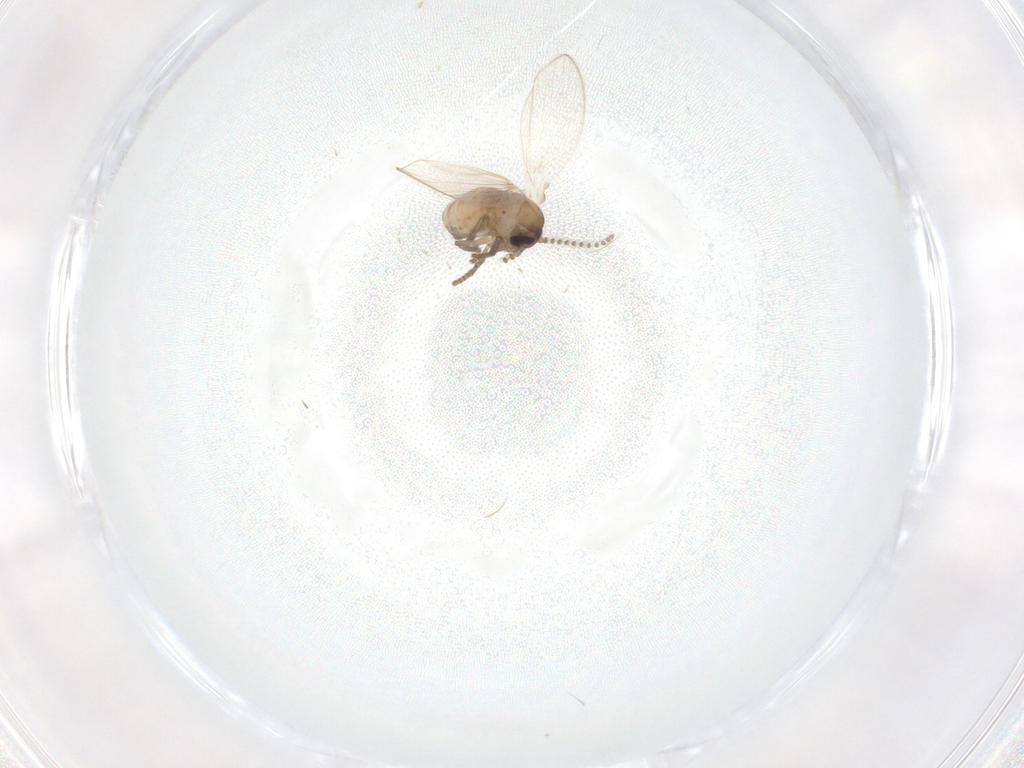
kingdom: Animalia
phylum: Arthropoda
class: Insecta
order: Diptera
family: Psychodidae
